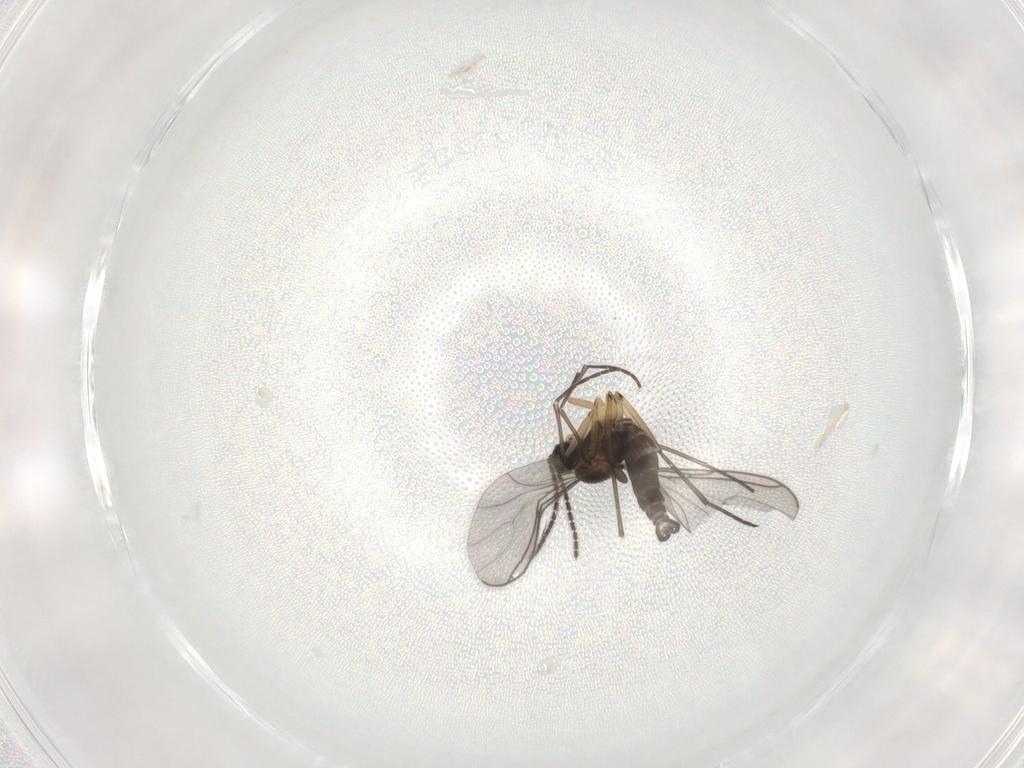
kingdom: Animalia
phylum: Arthropoda
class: Insecta
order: Diptera
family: Sciaridae
